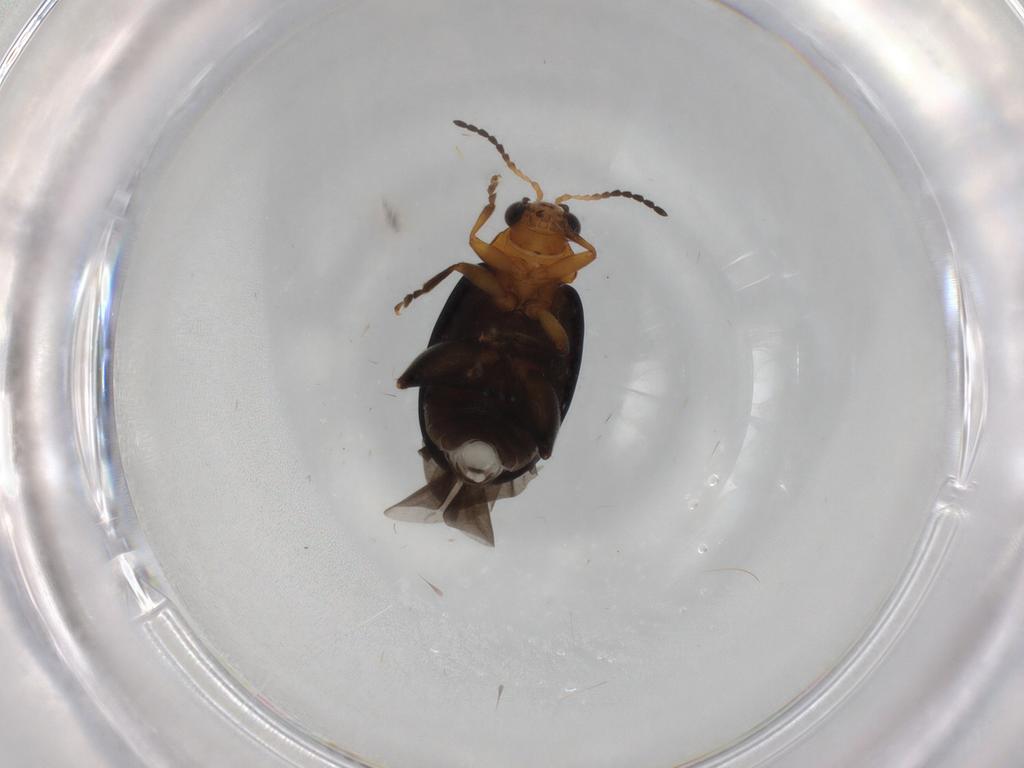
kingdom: Animalia
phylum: Arthropoda
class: Insecta
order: Coleoptera
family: Chrysomelidae
